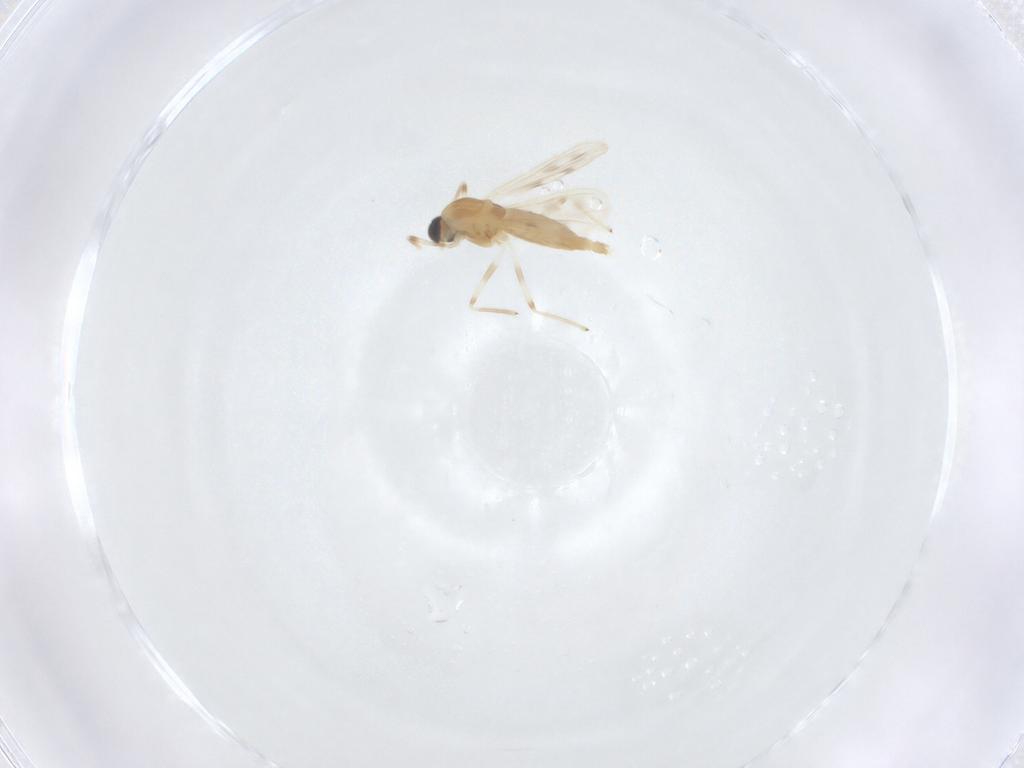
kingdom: Animalia
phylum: Arthropoda
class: Insecta
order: Diptera
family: Chironomidae
